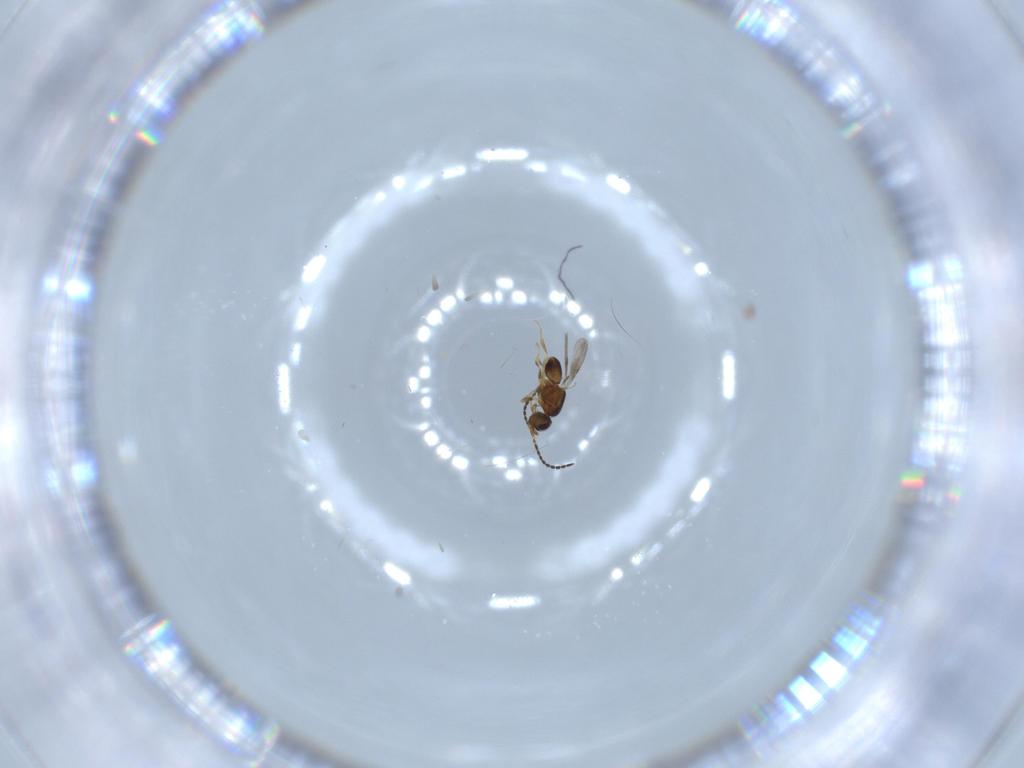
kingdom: Animalia
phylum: Arthropoda
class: Insecta
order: Hymenoptera
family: Ceraphronidae
